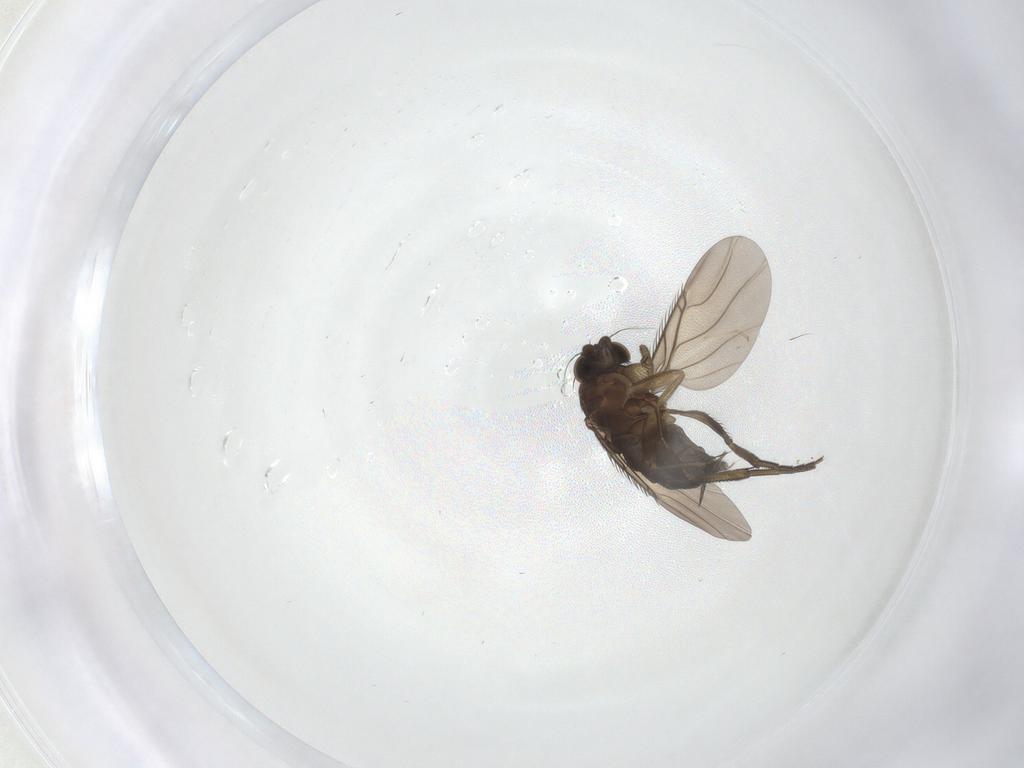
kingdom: Animalia
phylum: Arthropoda
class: Insecta
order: Diptera
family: Phoridae
